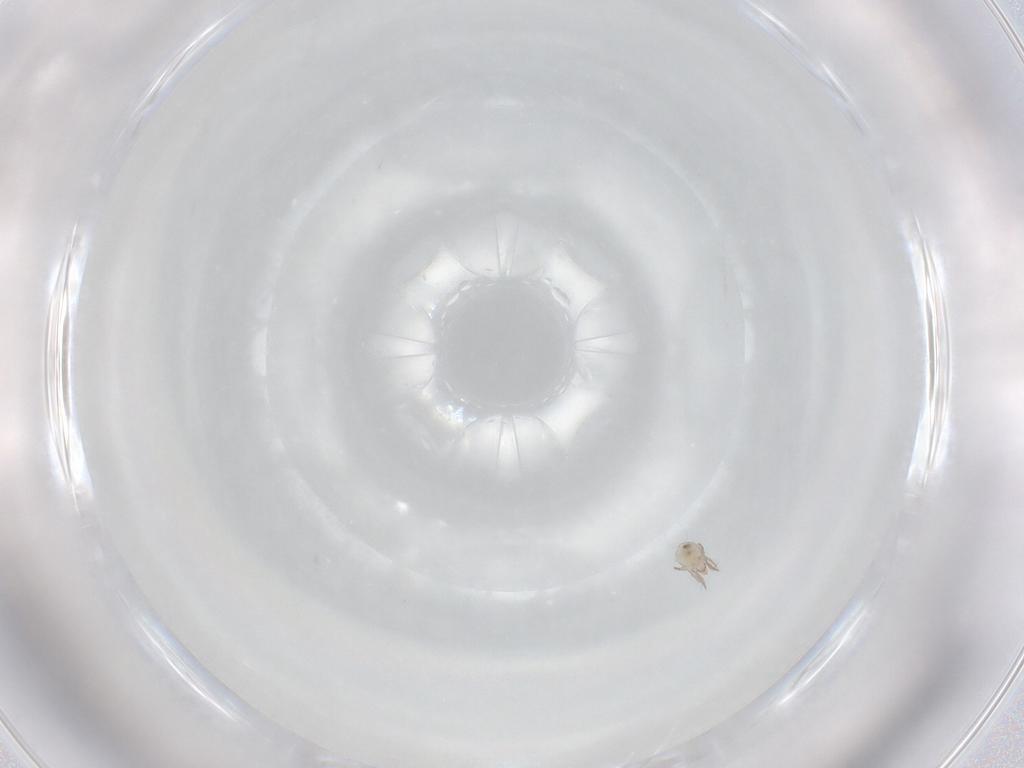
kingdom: Animalia
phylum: Arthropoda
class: Arachnida
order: Sarcoptiformes
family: Ceratoppiidae
